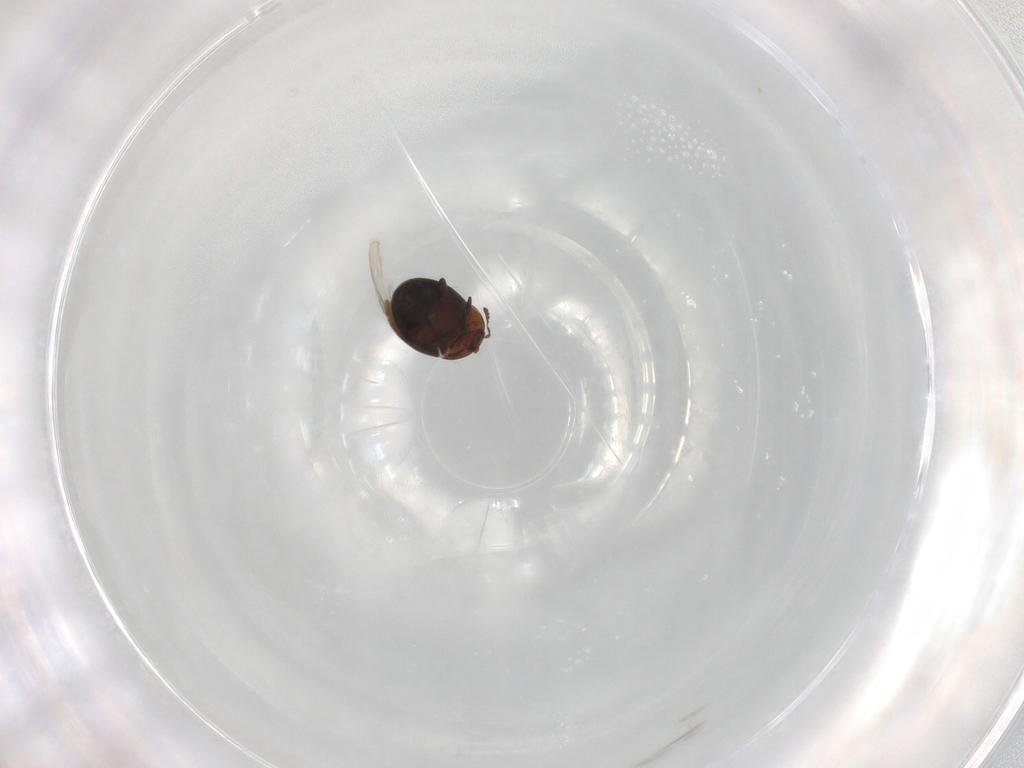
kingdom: Animalia
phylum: Arthropoda
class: Insecta
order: Coleoptera
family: Corylophidae
